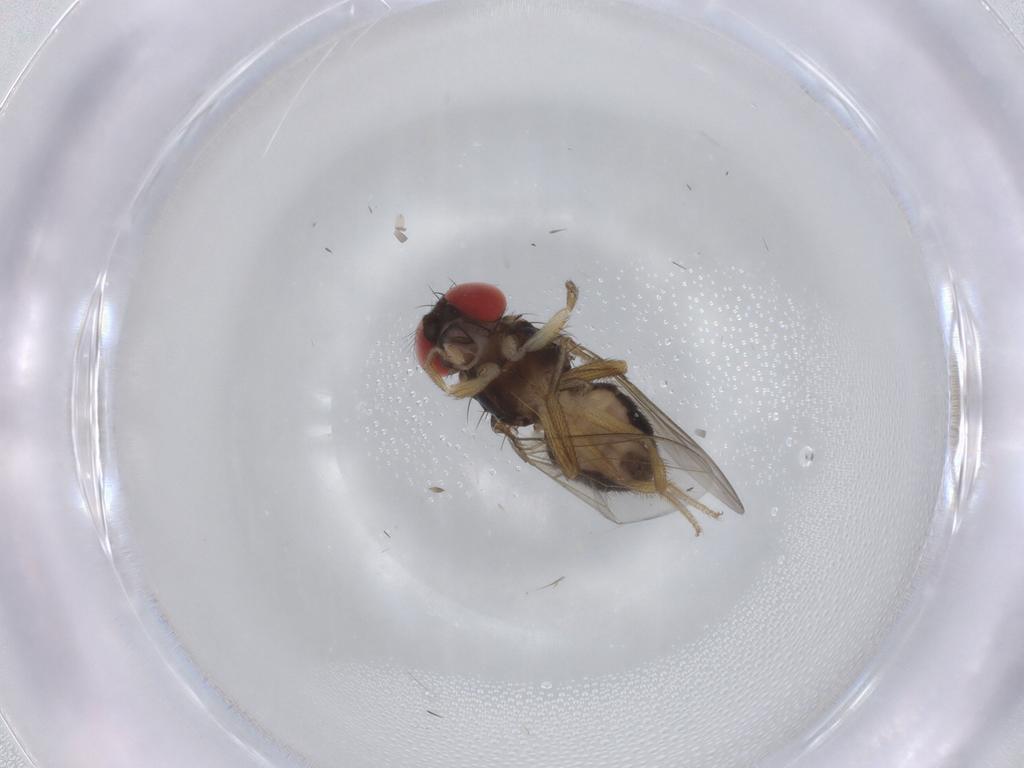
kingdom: Animalia
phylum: Arthropoda
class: Insecta
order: Diptera
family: Drosophilidae
